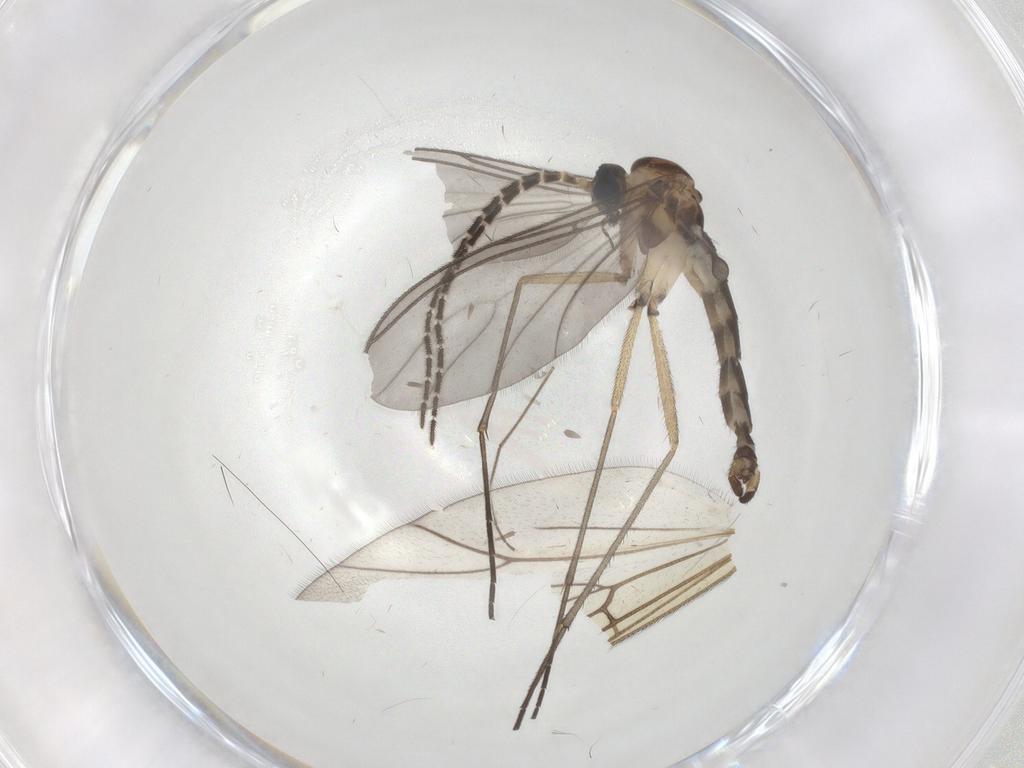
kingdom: Animalia
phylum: Arthropoda
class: Insecta
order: Diptera
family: Sciaridae
